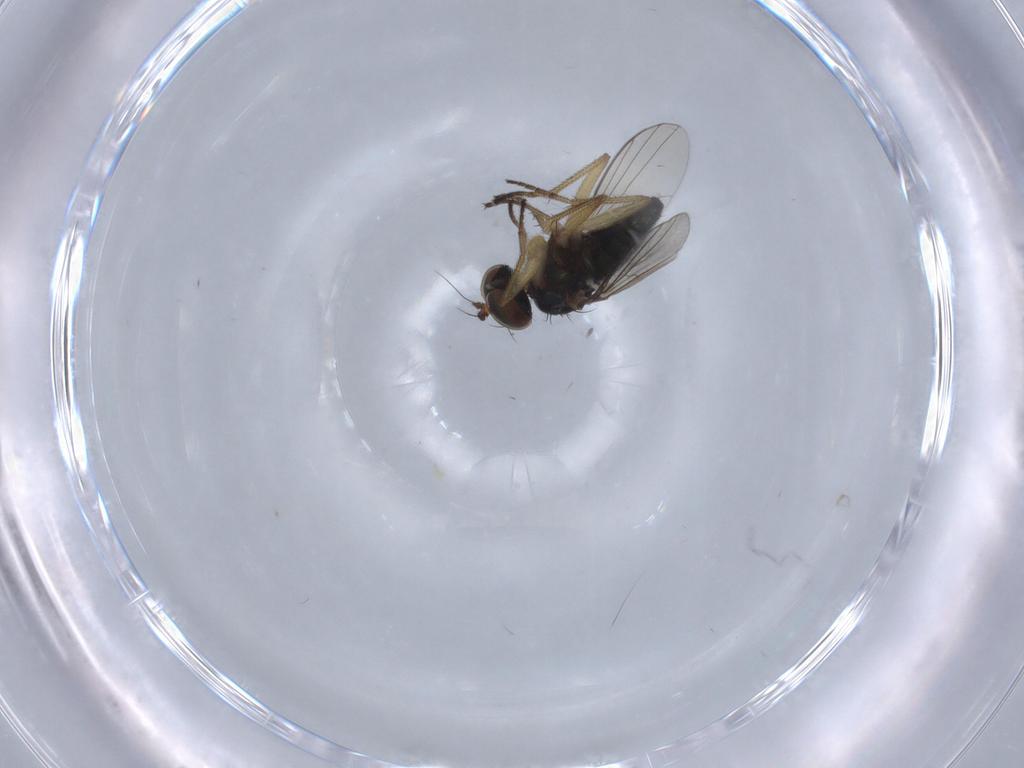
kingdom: Animalia
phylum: Arthropoda
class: Insecta
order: Diptera
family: Dolichopodidae
